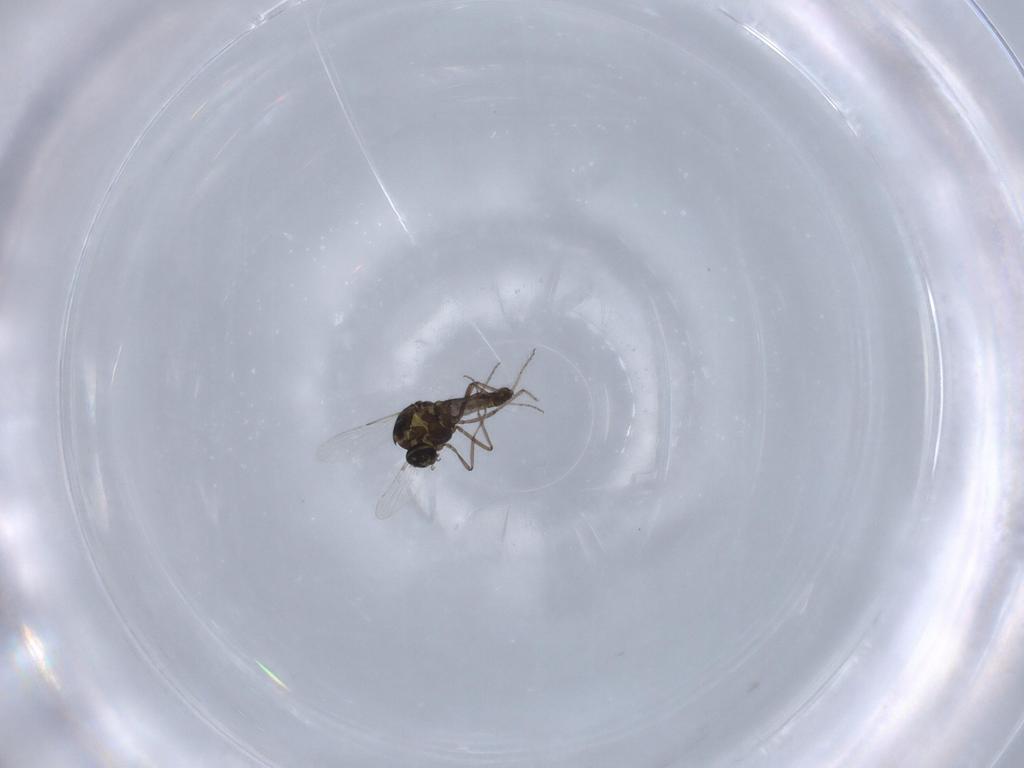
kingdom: Animalia
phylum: Arthropoda
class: Insecta
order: Diptera
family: Ceratopogonidae
